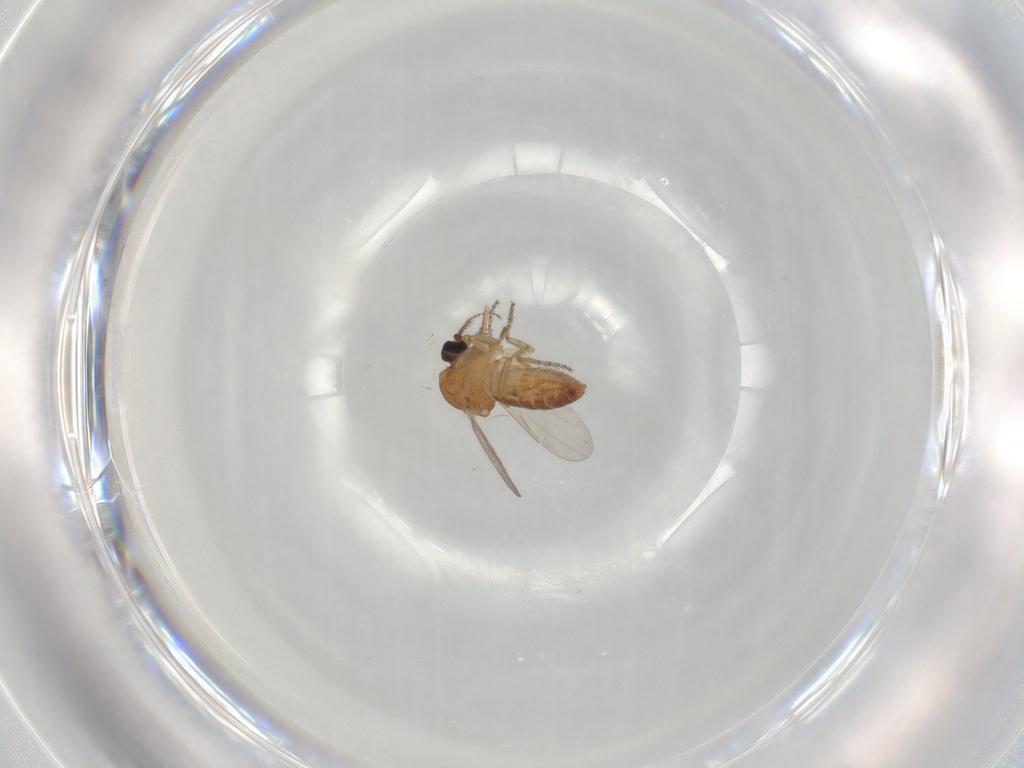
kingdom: Animalia
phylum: Arthropoda
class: Insecta
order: Diptera
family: Ceratopogonidae
